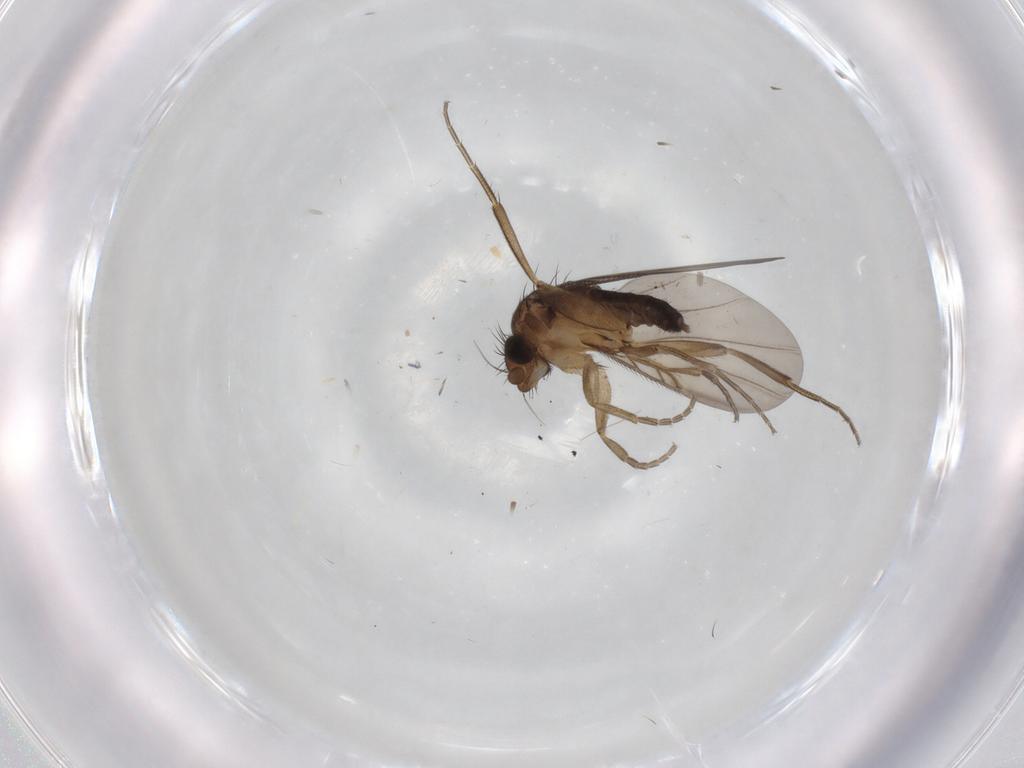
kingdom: Animalia
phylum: Arthropoda
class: Insecta
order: Diptera
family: Phoridae
